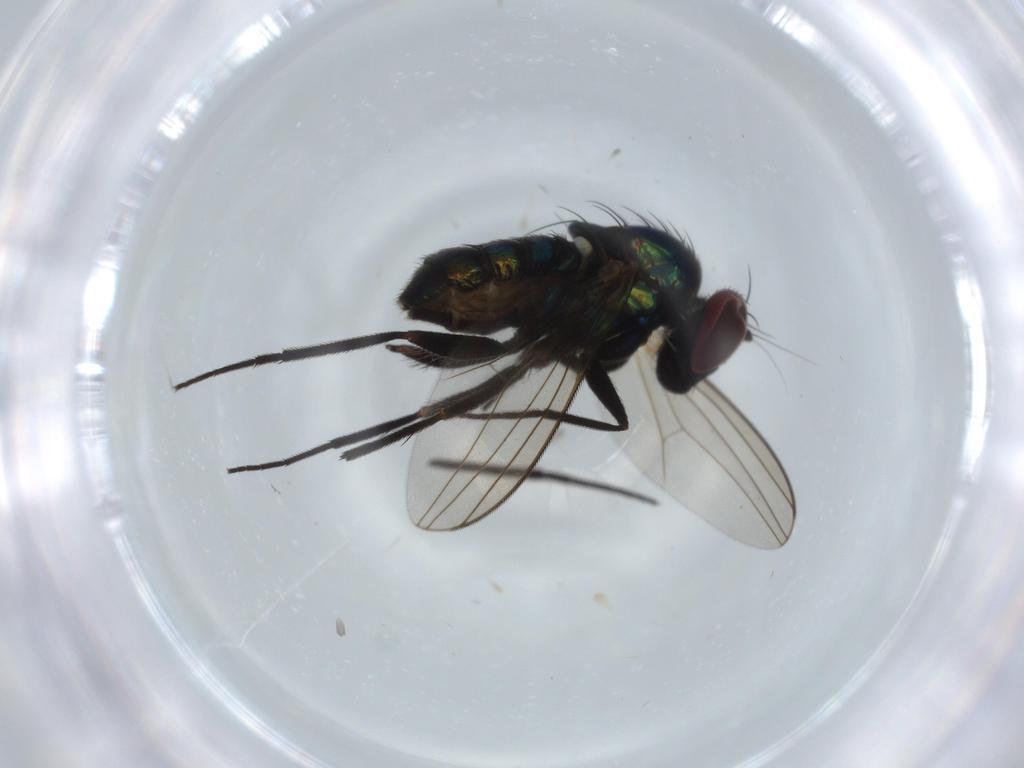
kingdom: Animalia
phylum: Arthropoda
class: Insecta
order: Diptera
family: Dolichopodidae
